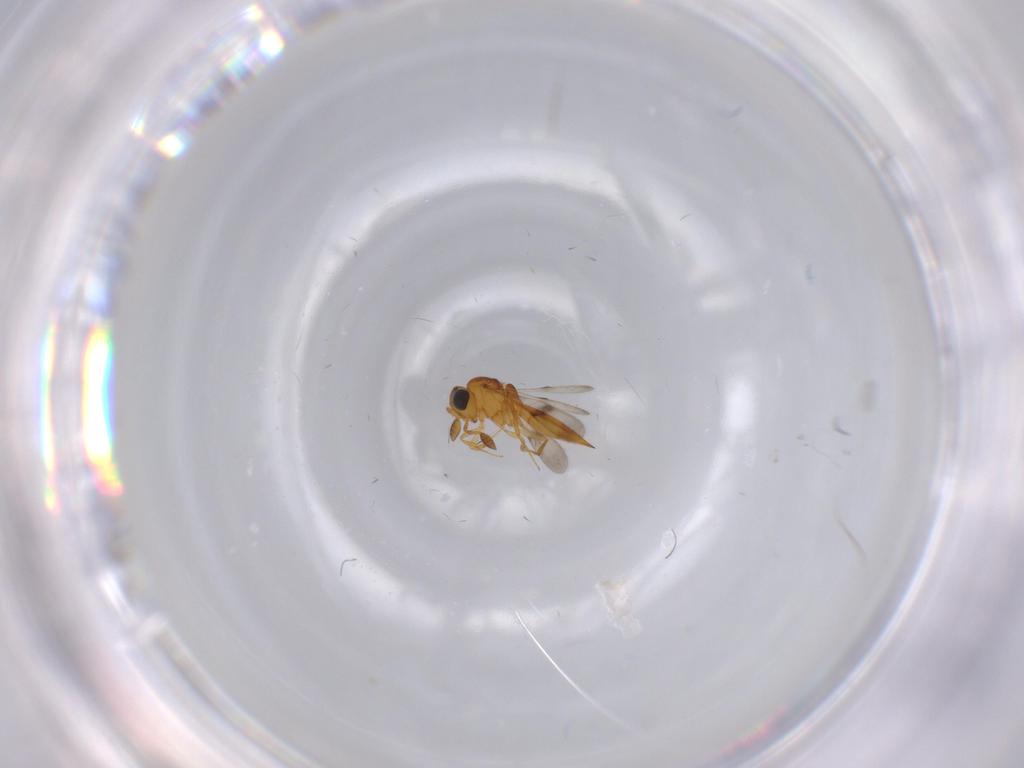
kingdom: Animalia
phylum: Arthropoda
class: Insecta
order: Hymenoptera
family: Scelionidae
